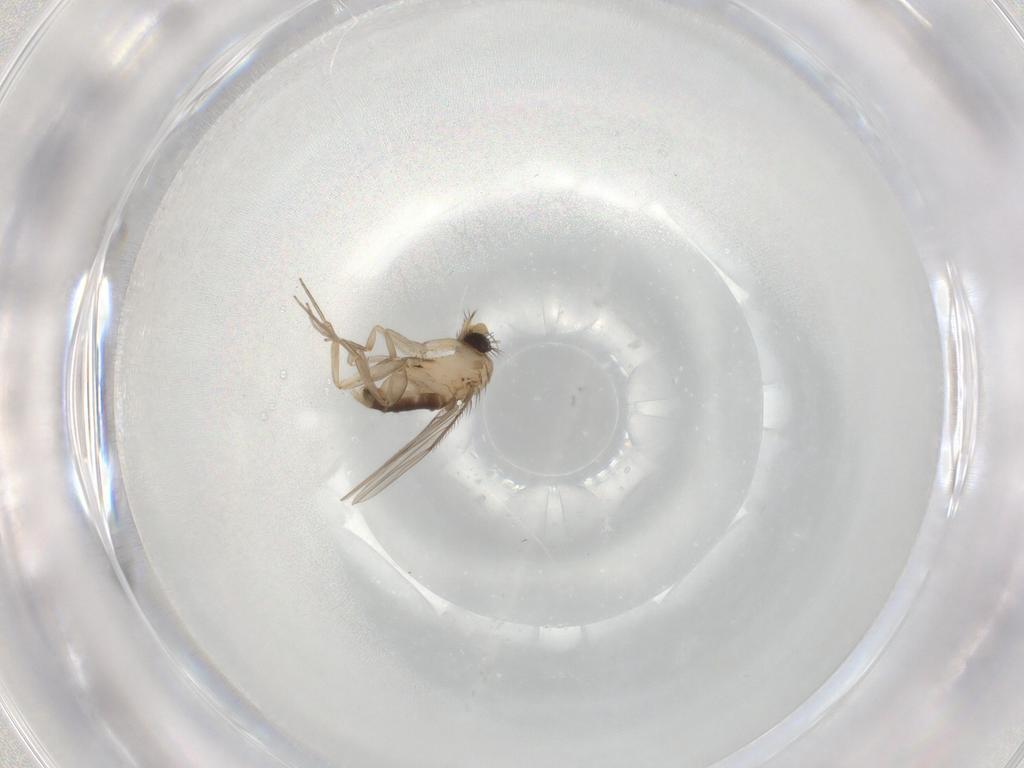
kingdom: Animalia
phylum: Arthropoda
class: Insecta
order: Diptera
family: Phoridae
